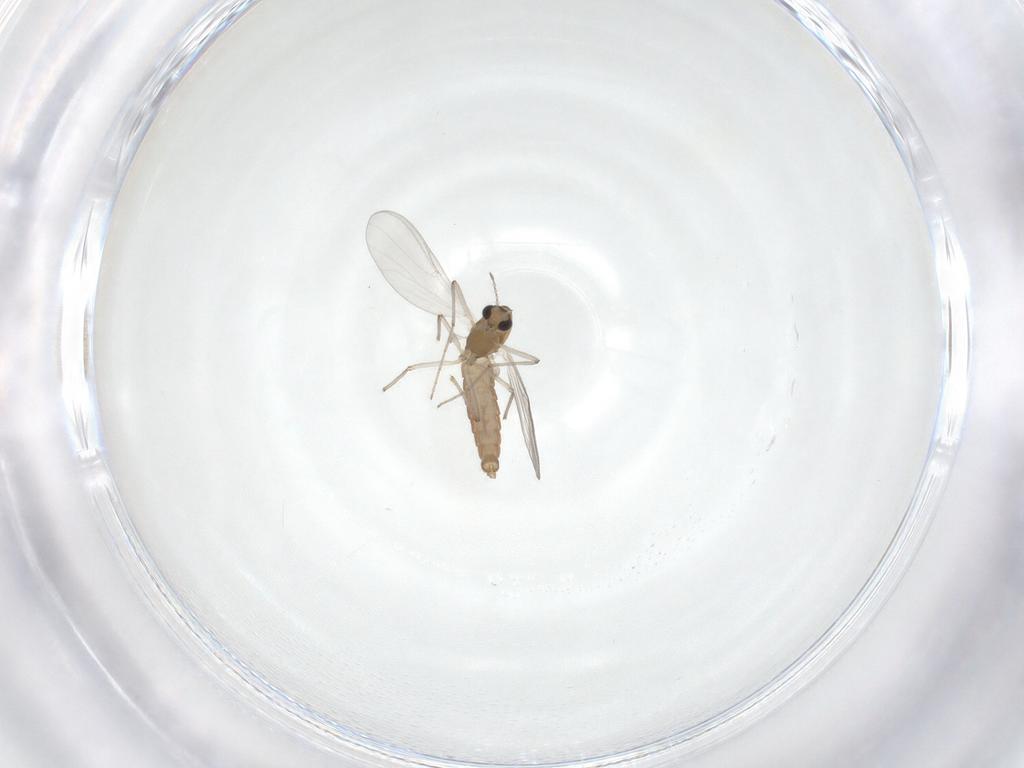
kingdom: Animalia
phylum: Arthropoda
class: Insecta
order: Diptera
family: Chironomidae
